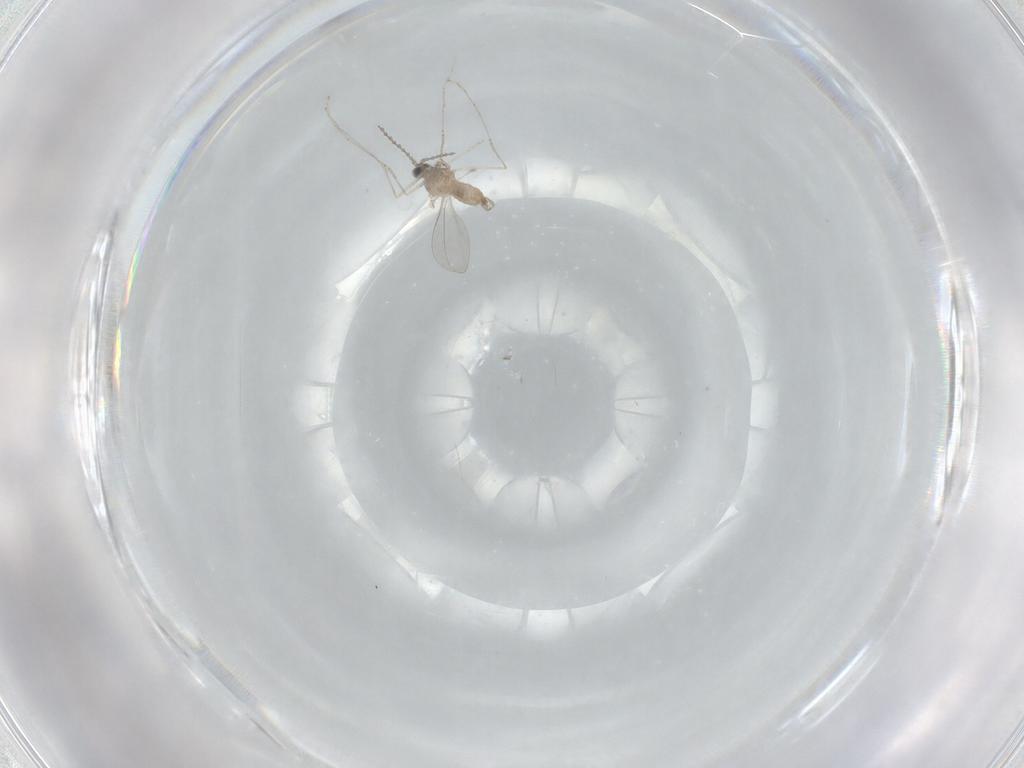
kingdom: Animalia
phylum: Arthropoda
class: Insecta
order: Diptera
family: Cecidomyiidae
